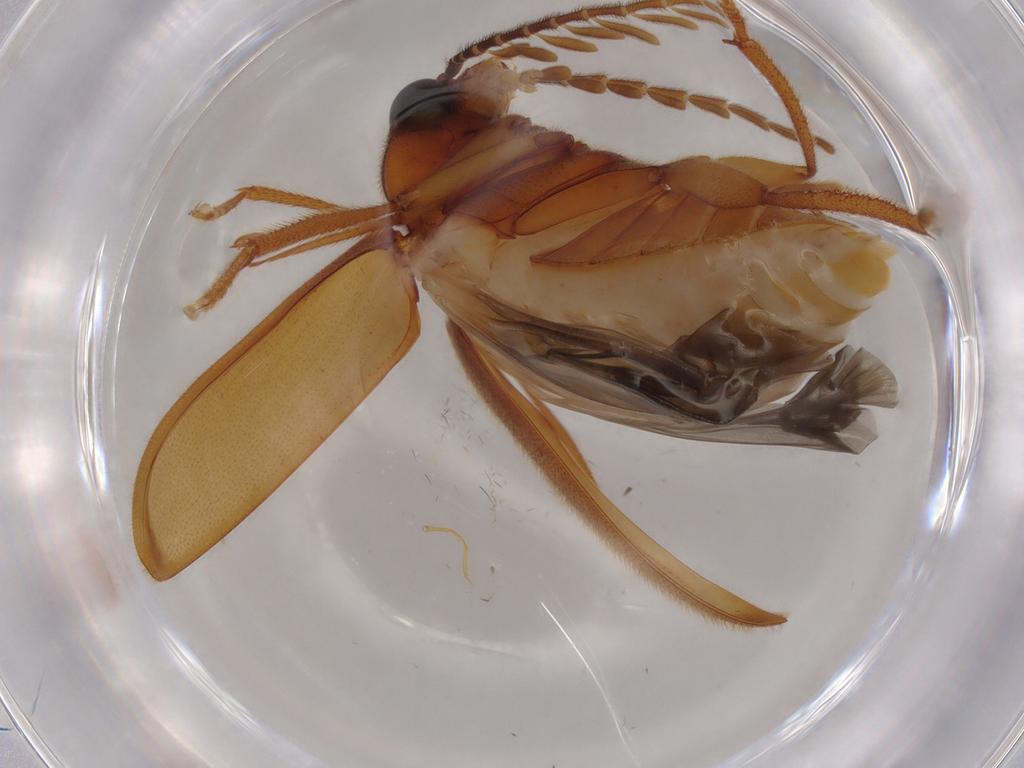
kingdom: Animalia
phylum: Arthropoda
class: Insecta
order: Coleoptera
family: Ptilodactylidae
